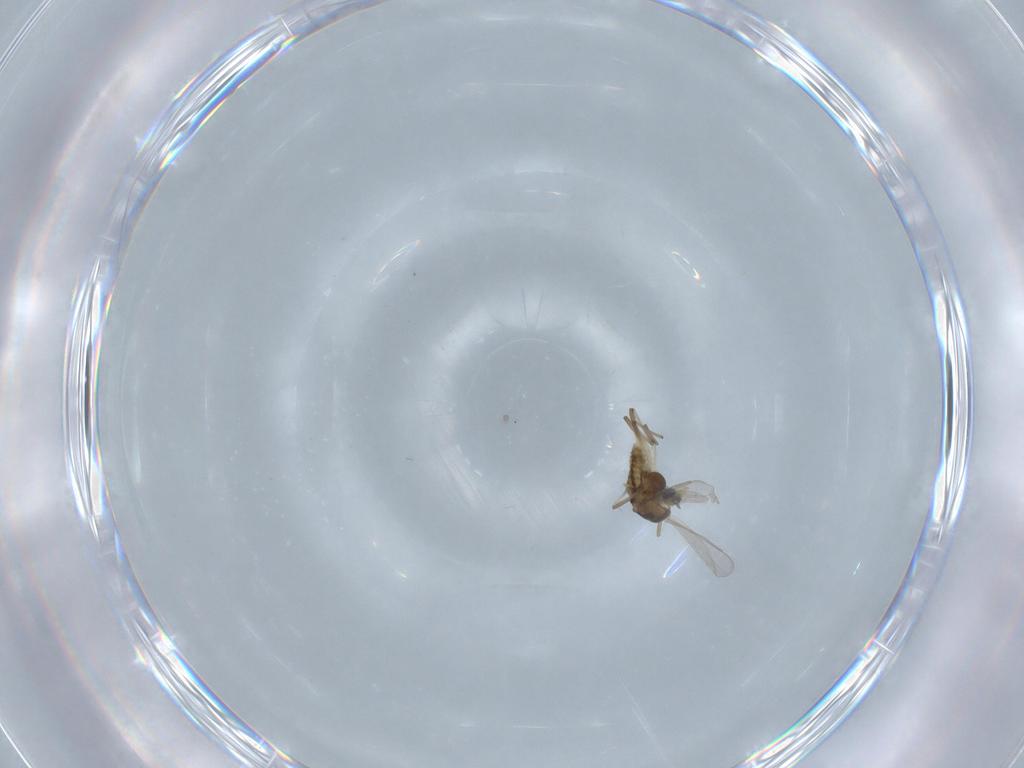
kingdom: Animalia
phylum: Arthropoda
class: Insecta
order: Diptera
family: Chironomidae
